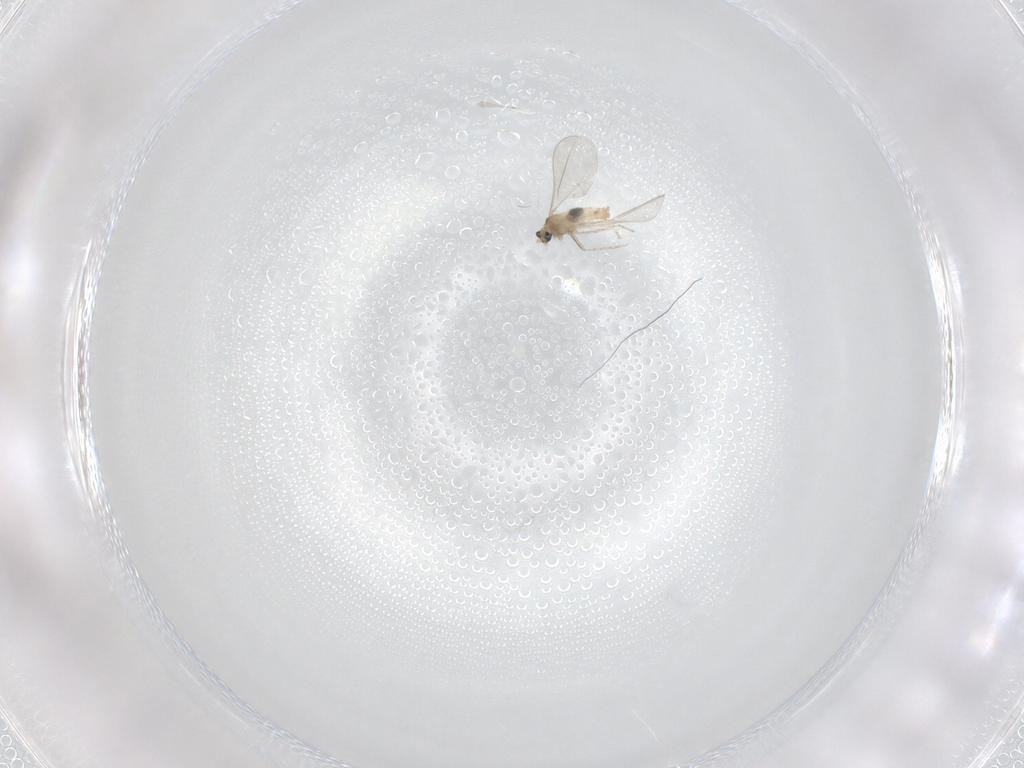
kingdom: Animalia
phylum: Arthropoda
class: Insecta
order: Diptera
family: Cecidomyiidae
